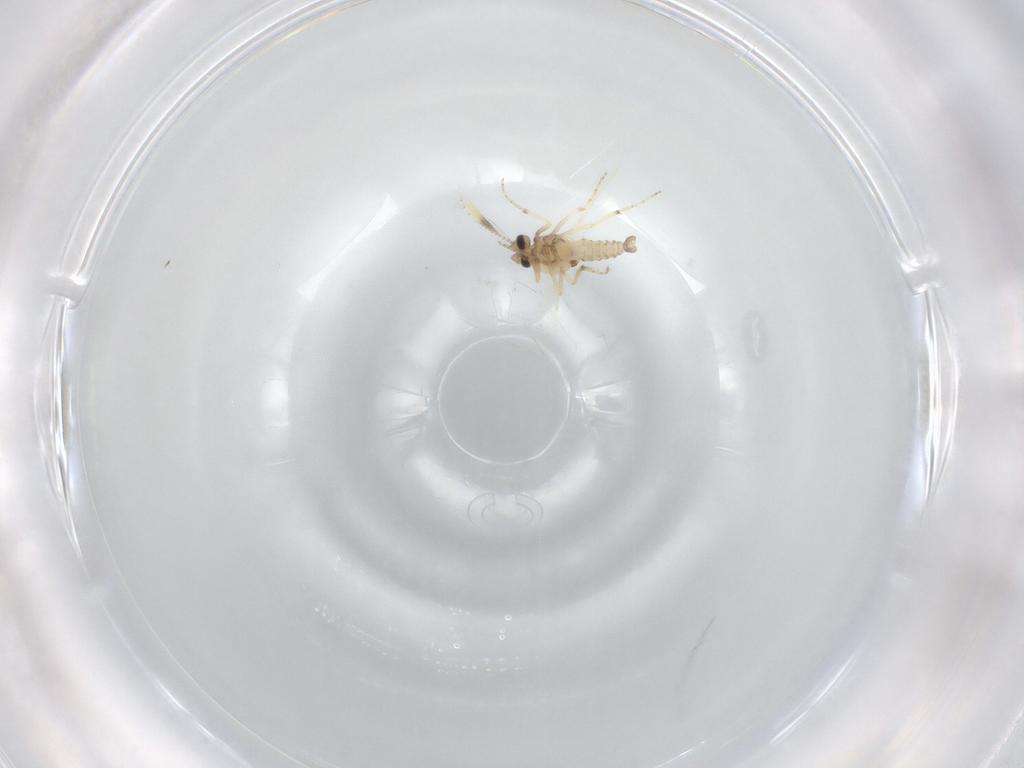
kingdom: Animalia
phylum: Arthropoda
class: Insecta
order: Diptera
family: Ceratopogonidae
